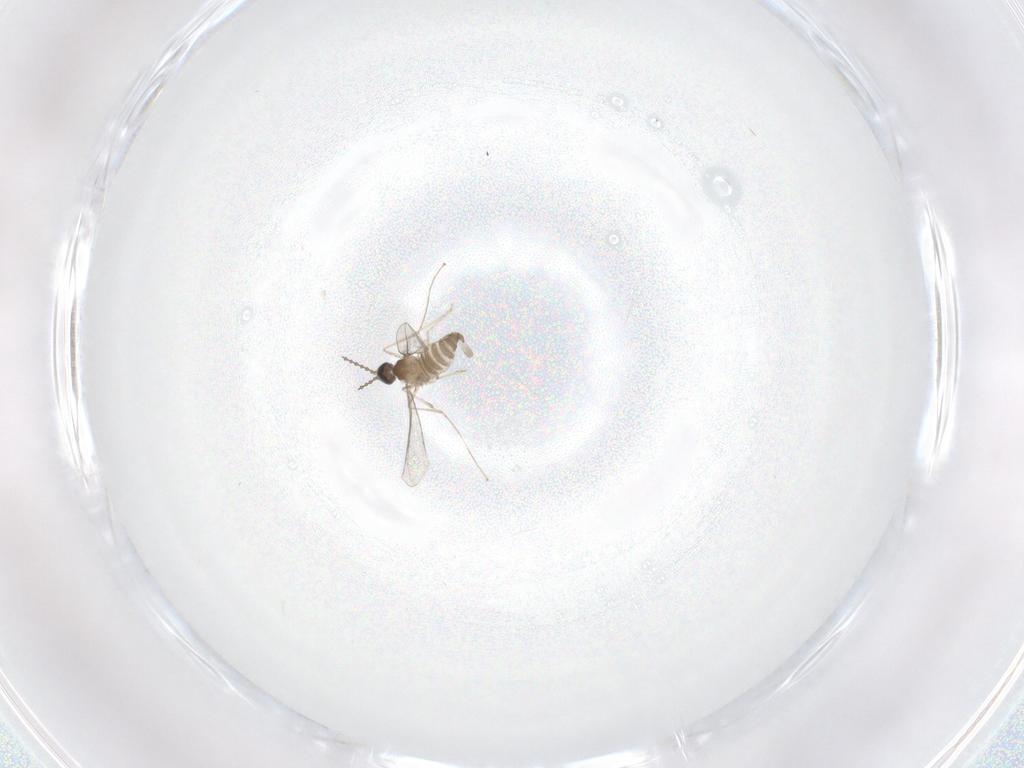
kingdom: Animalia
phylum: Arthropoda
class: Insecta
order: Diptera
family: Cecidomyiidae
